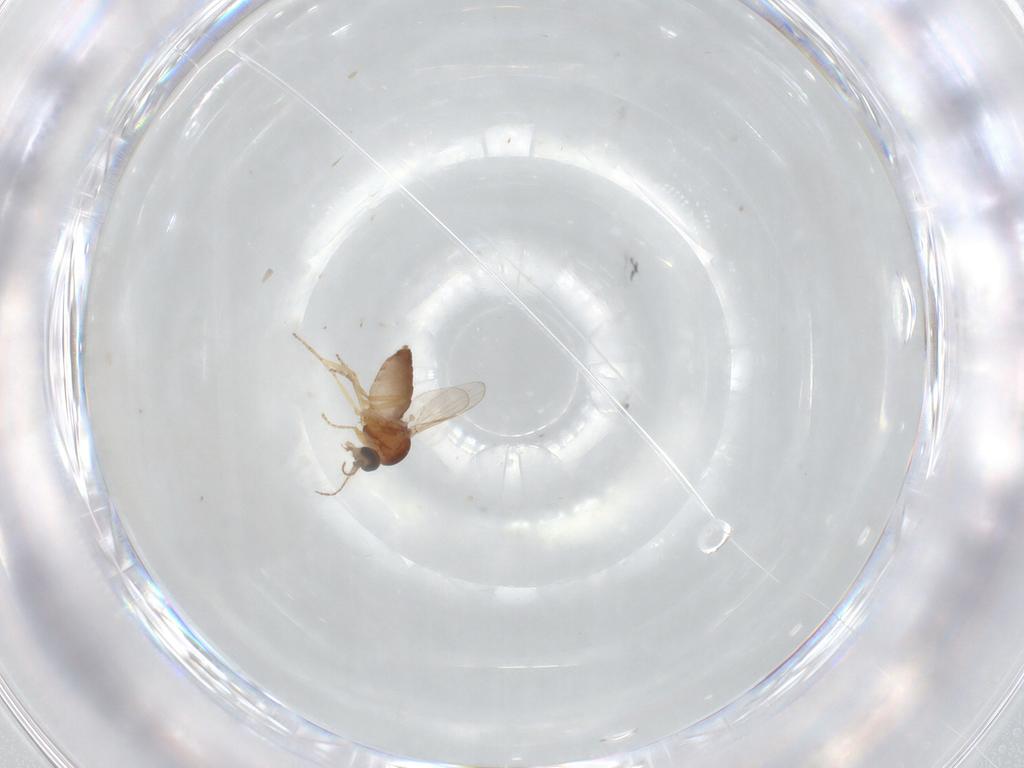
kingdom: Animalia
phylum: Arthropoda
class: Insecta
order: Diptera
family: Ceratopogonidae
